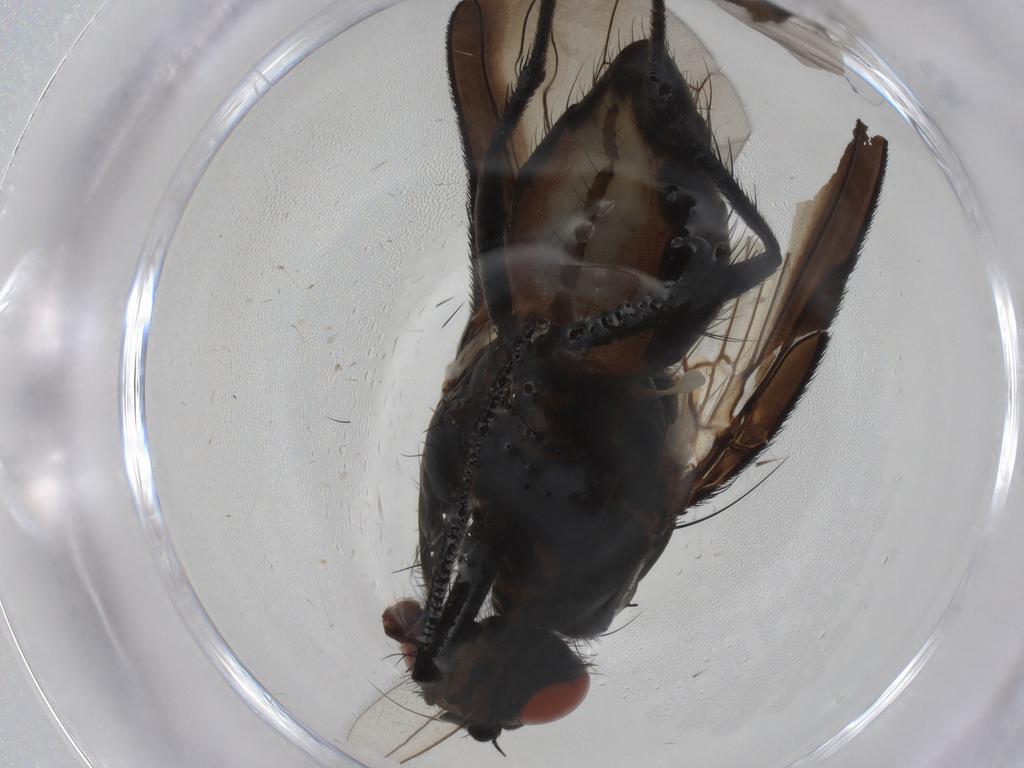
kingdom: Animalia
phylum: Arthropoda
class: Insecta
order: Diptera
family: Anthomyiidae
